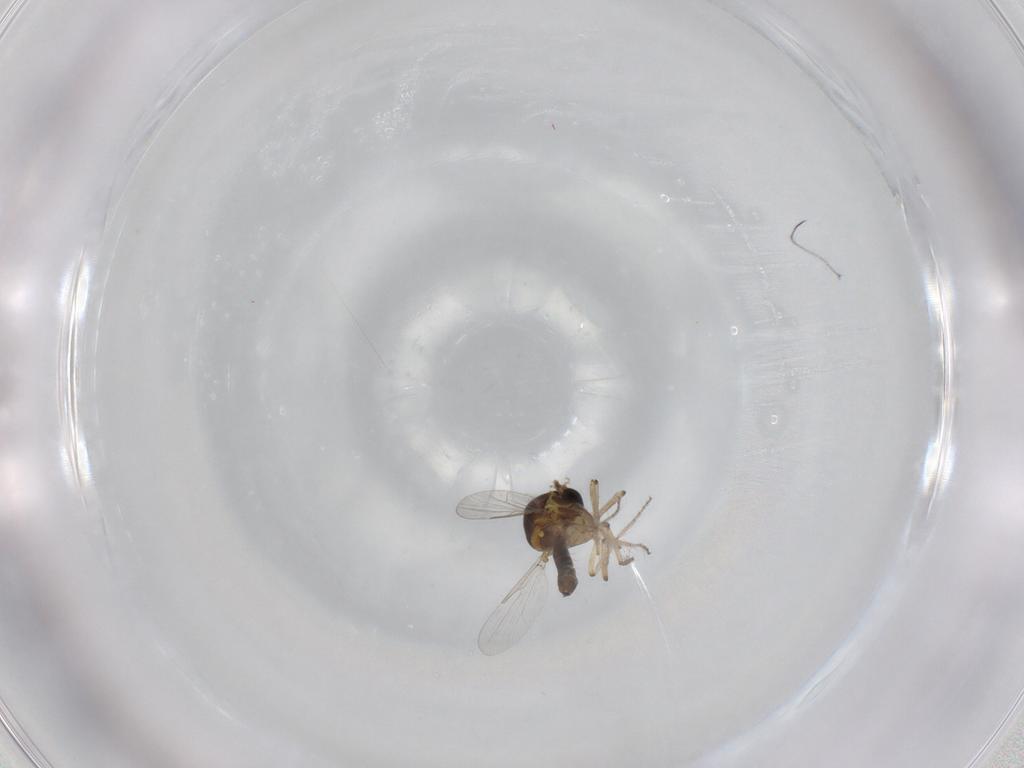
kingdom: Animalia
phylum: Arthropoda
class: Insecta
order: Diptera
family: Ceratopogonidae
